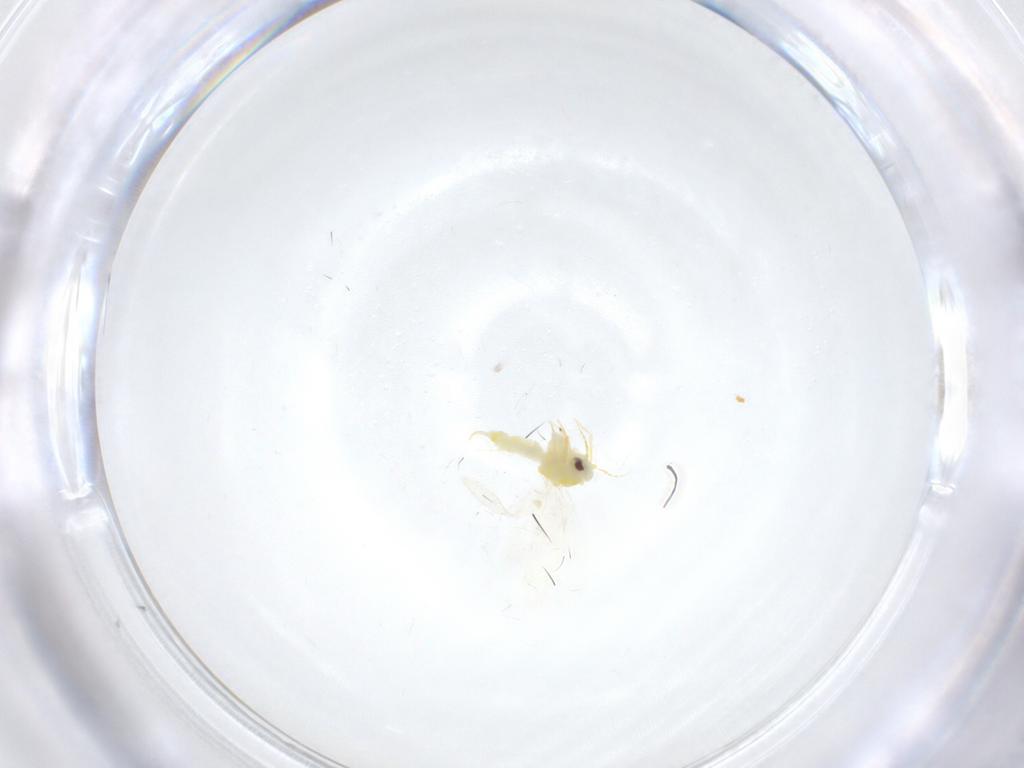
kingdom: Animalia
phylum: Arthropoda
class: Insecta
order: Hemiptera
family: Aleyrodidae
